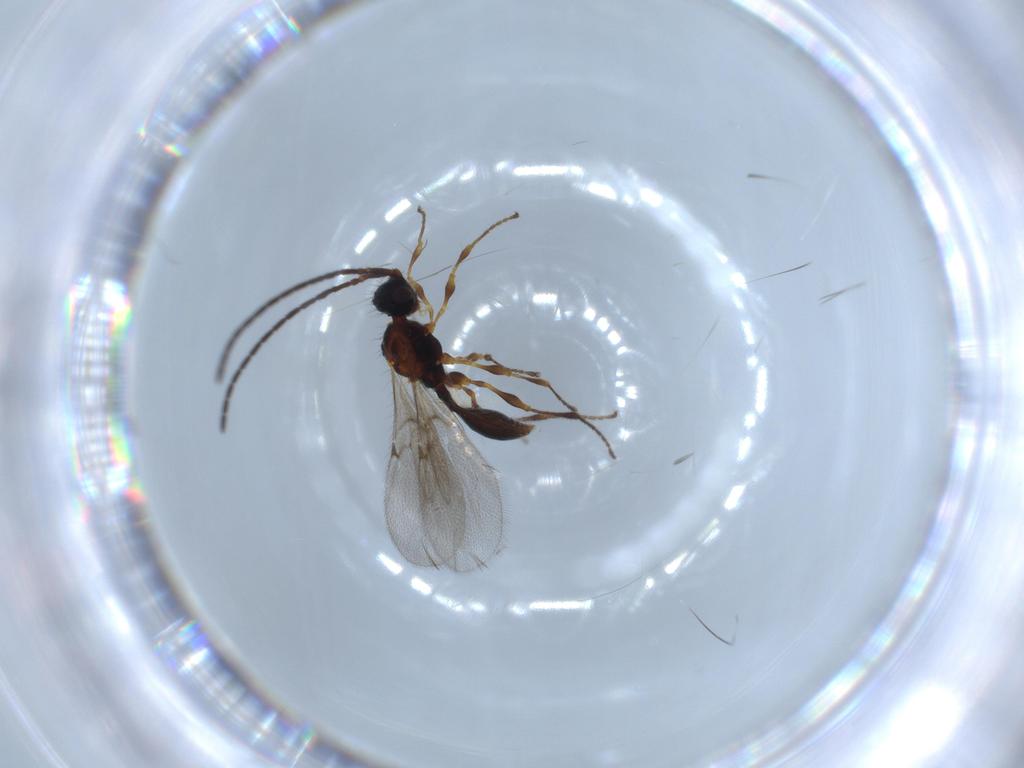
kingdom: Animalia
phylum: Arthropoda
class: Insecta
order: Hymenoptera
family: Diapriidae
